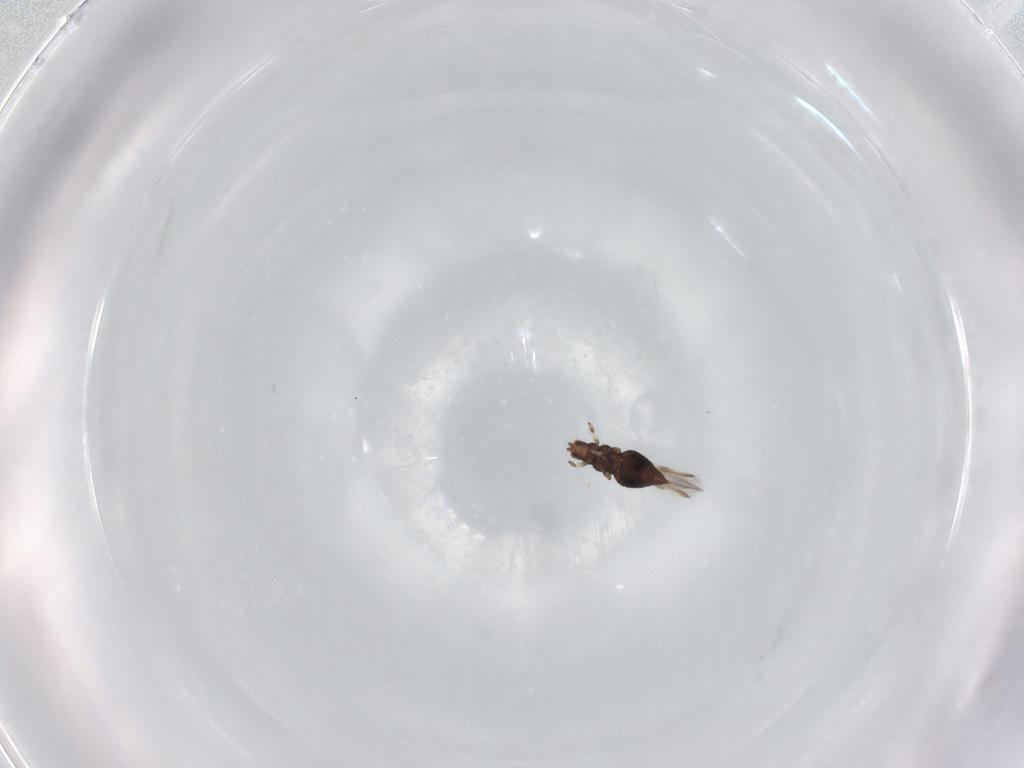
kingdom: Animalia
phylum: Arthropoda
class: Insecta
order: Thysanoptera
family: Thripidae
